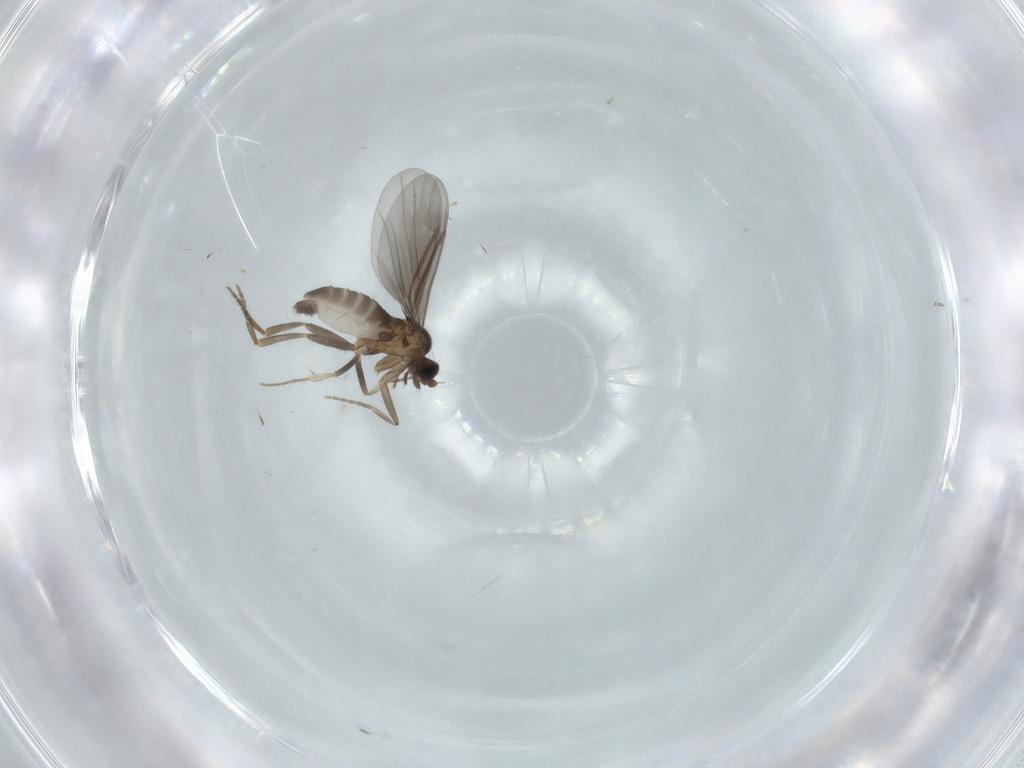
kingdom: Animalia
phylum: Arthropoda
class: Insecta
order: Diptera
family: Phoridae
